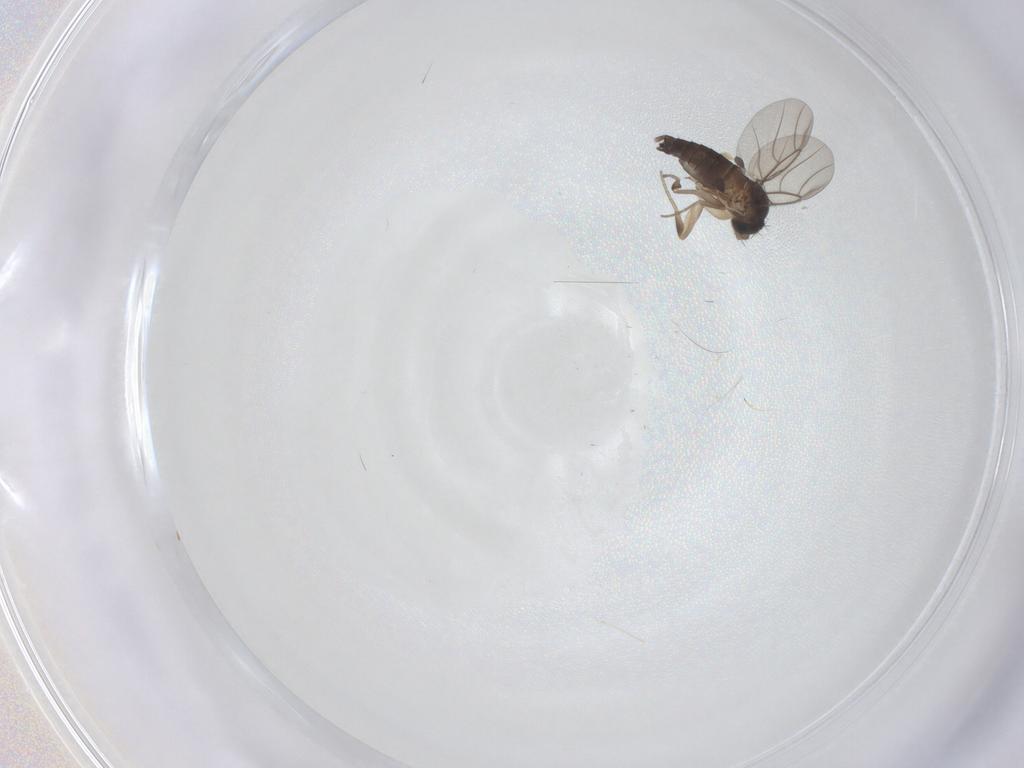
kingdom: Animalia
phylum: Arthropoda
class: Insecta
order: Diptera
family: Phoridae
